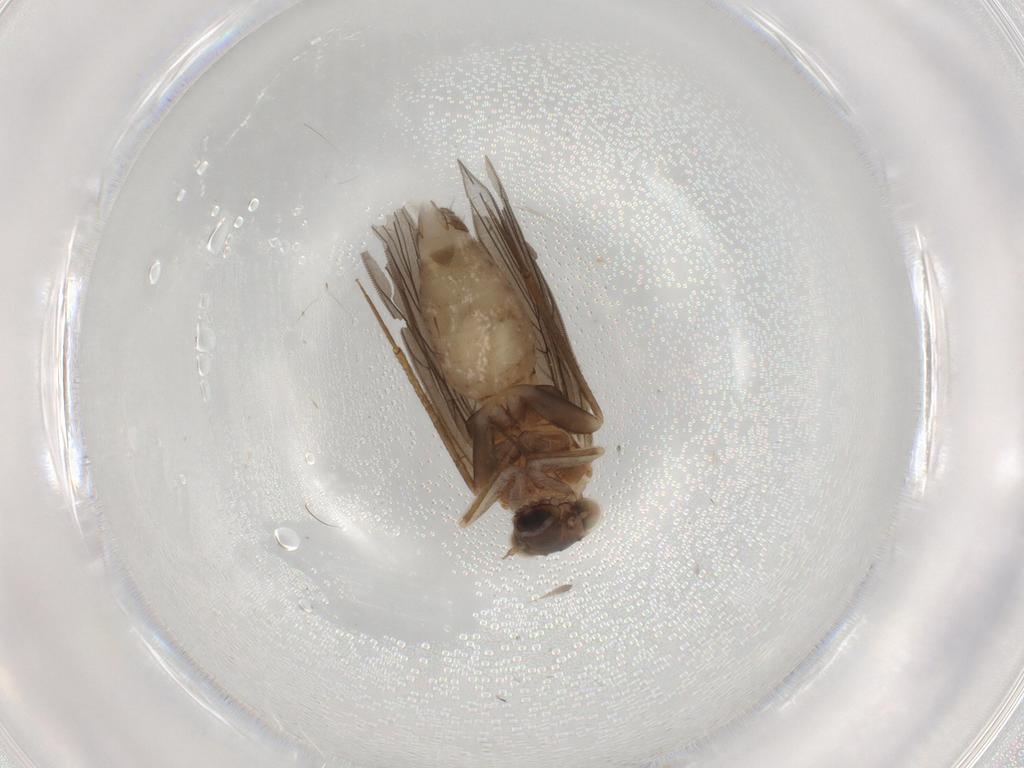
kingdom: Animalia
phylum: Arthropoda
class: Insecta
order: Psocodea
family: Lepidopsocidae
